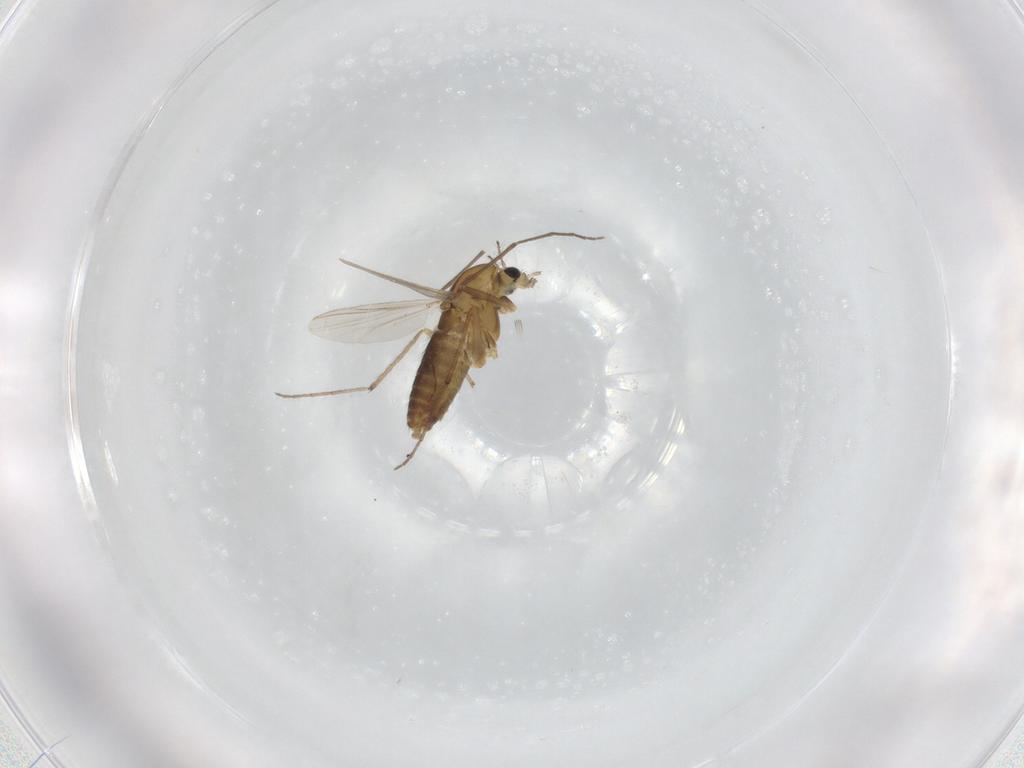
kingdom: Animalia
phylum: Arthropoda
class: Insecta
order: Diptera
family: Chironomidae
